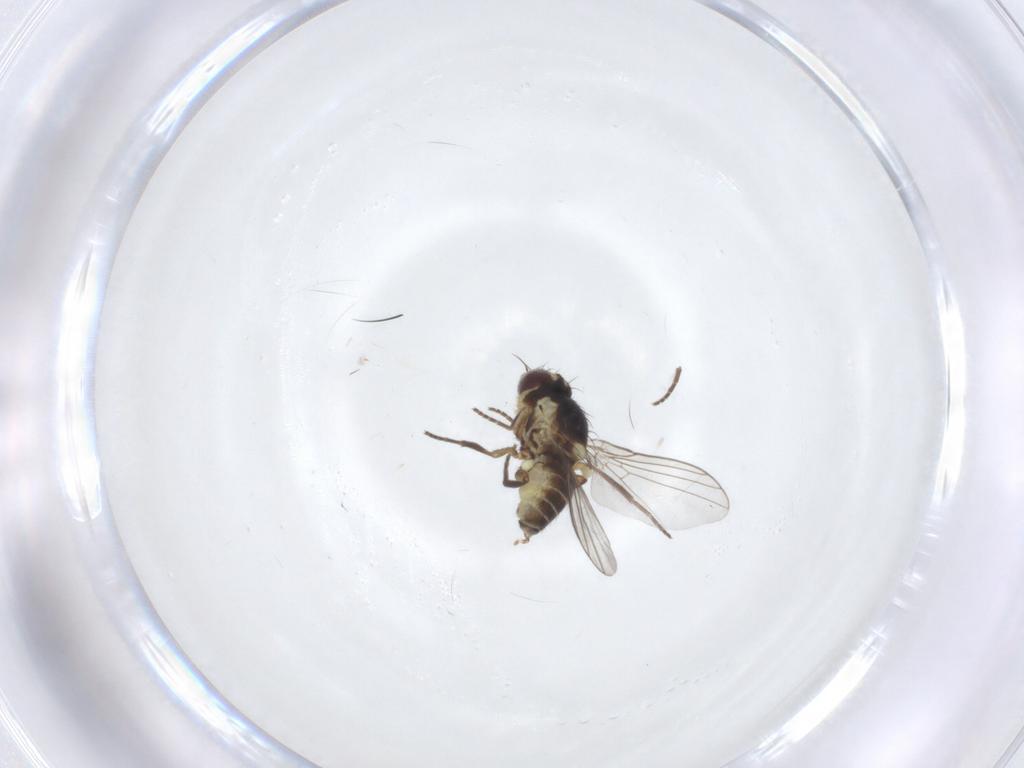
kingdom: Animalia
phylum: Arthropoda
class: Insecta
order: Diptera
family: Agromyzidae
